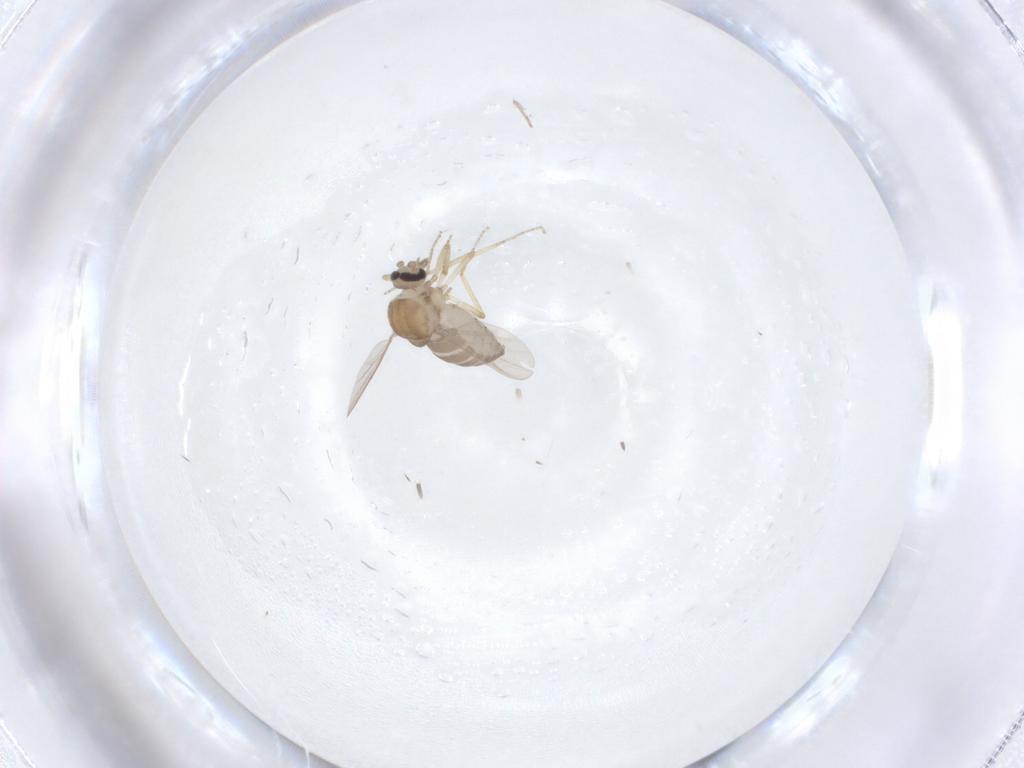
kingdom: Animalia
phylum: Arthropoda
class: Insecta
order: Diptera
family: Ceratopogonidae
